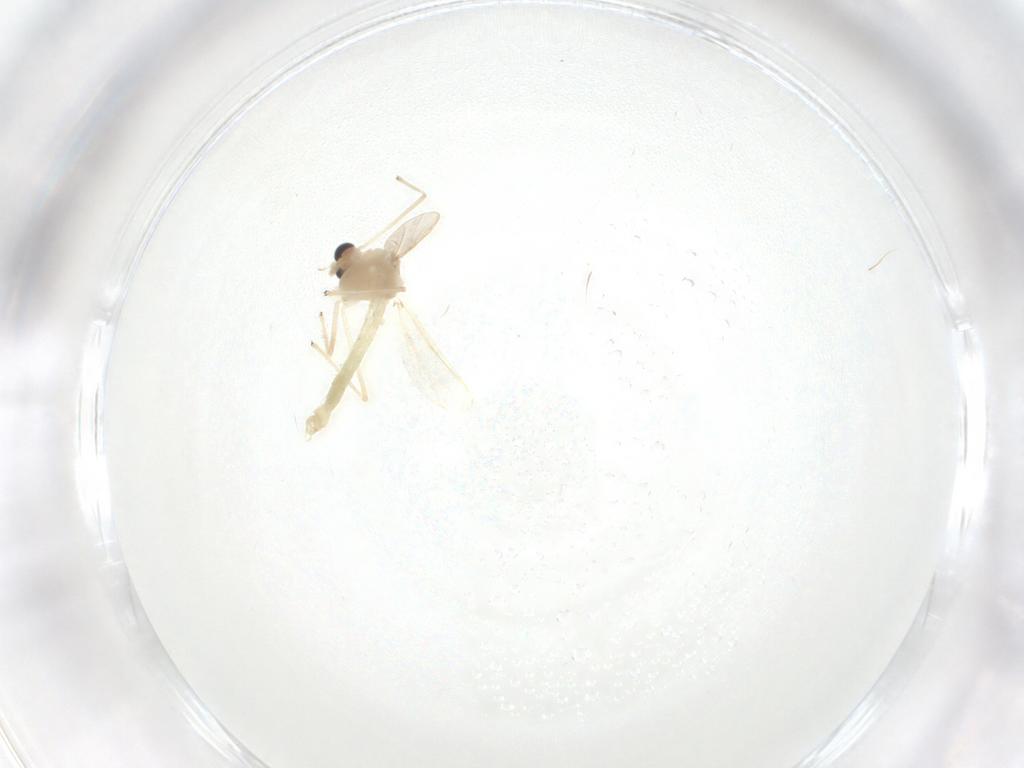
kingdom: Animalia
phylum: Arthropoda
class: Insecta
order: Diptera
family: Chironomidae
